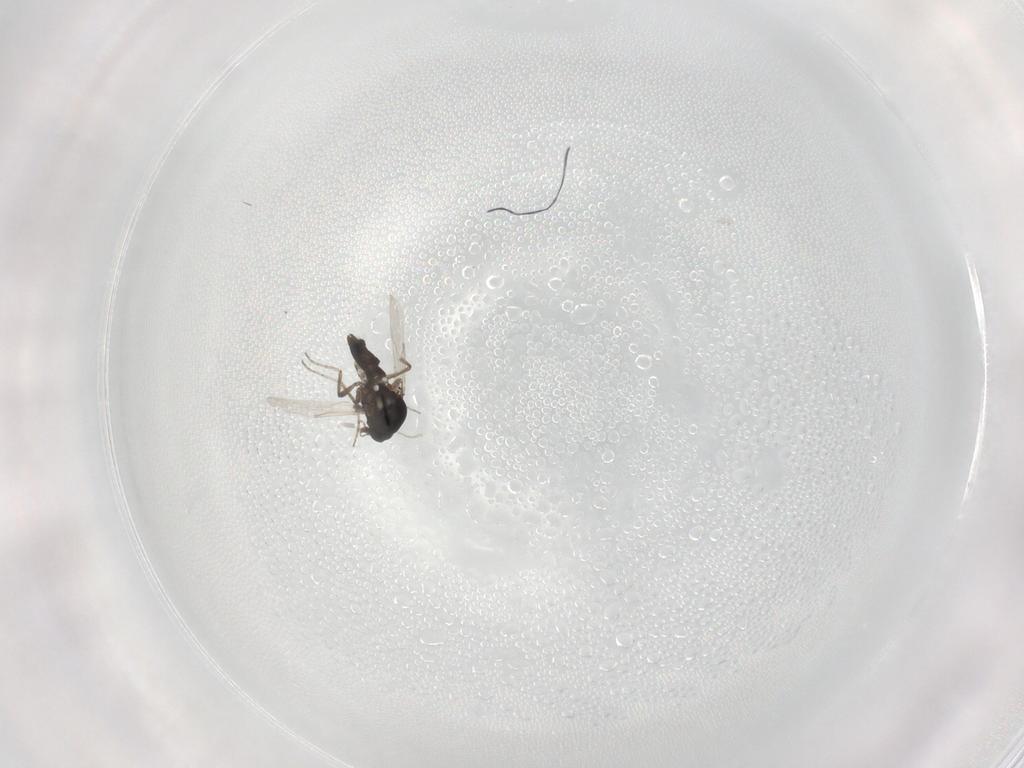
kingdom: Animalia
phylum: Arthropoda
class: Insecta
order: Diptera
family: Ceratopogonidae
